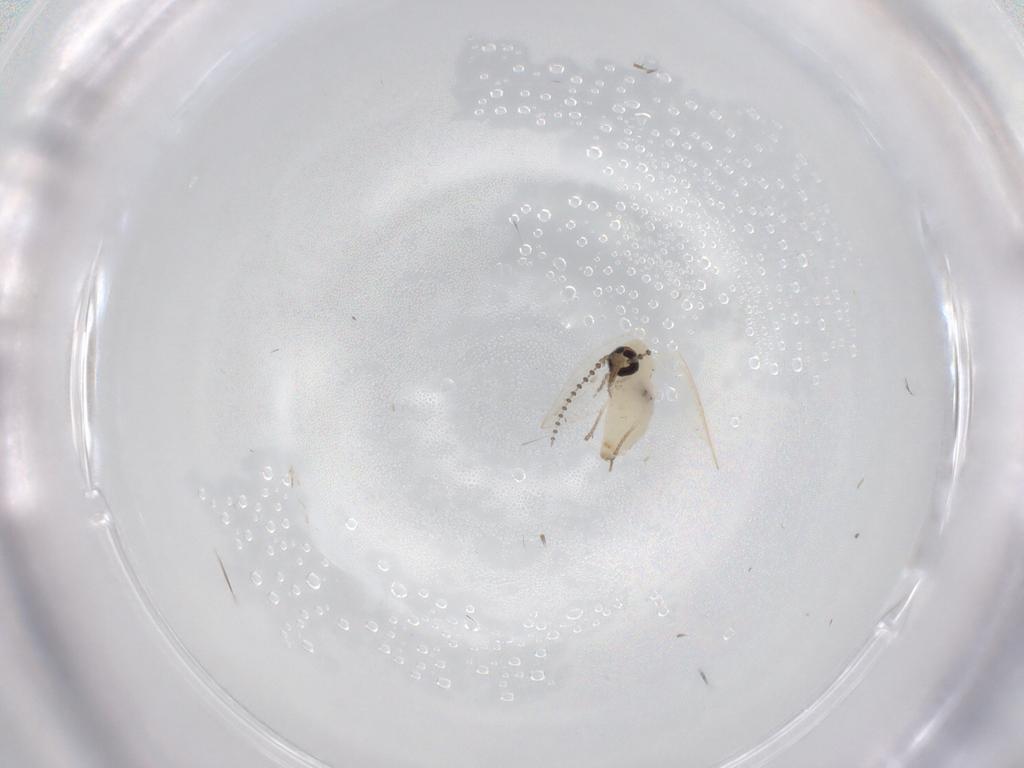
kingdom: Animalia
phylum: Arthropoda
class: Insecta
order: Diptera
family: Psychodidae
